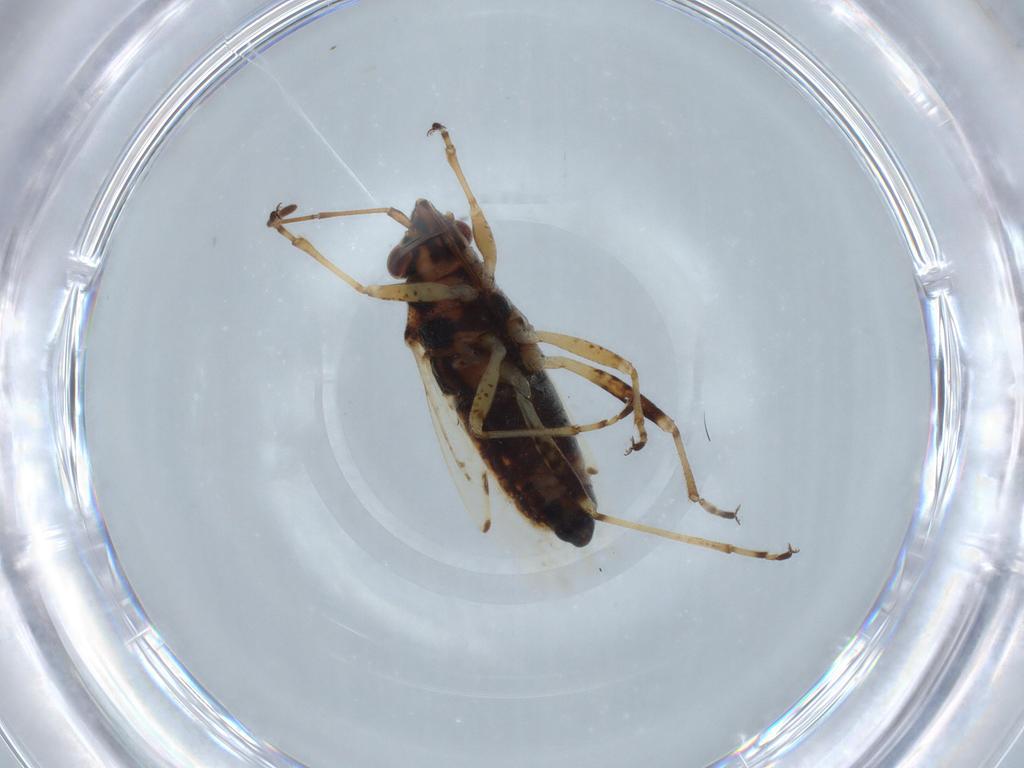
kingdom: Animalia
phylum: Arthropoda
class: Insecta
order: Hemiptera
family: Lygaeidae
